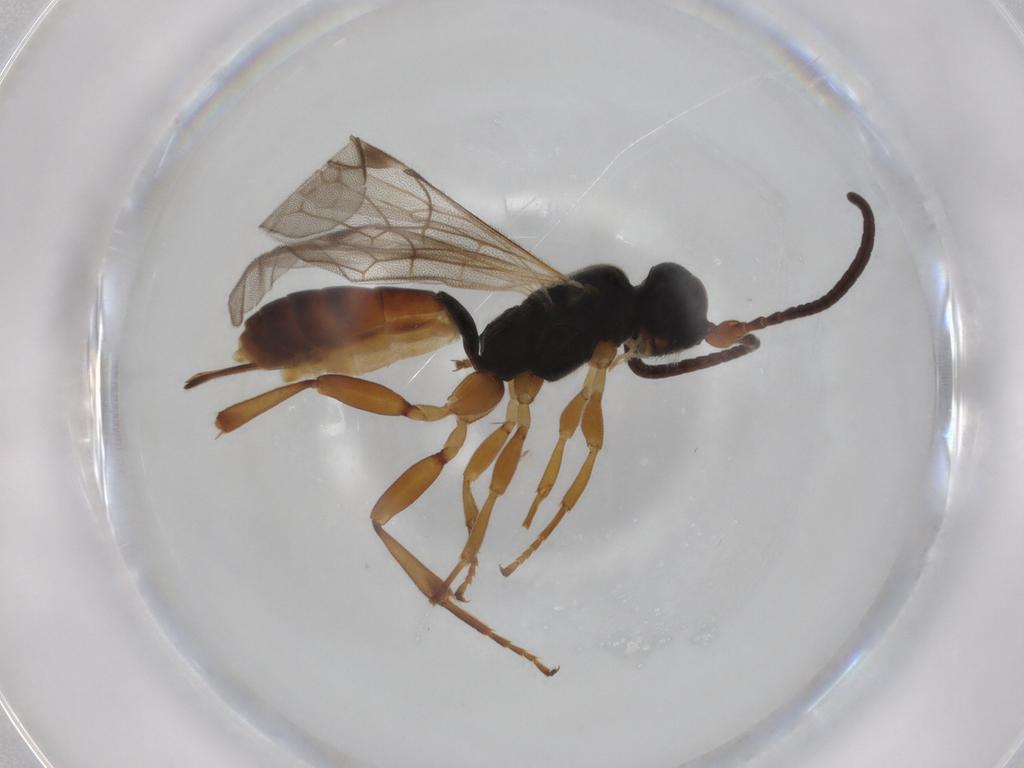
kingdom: Animalia
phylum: Arthropoda
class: Insecta
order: Hymenoptera
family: Ichneumonidae
